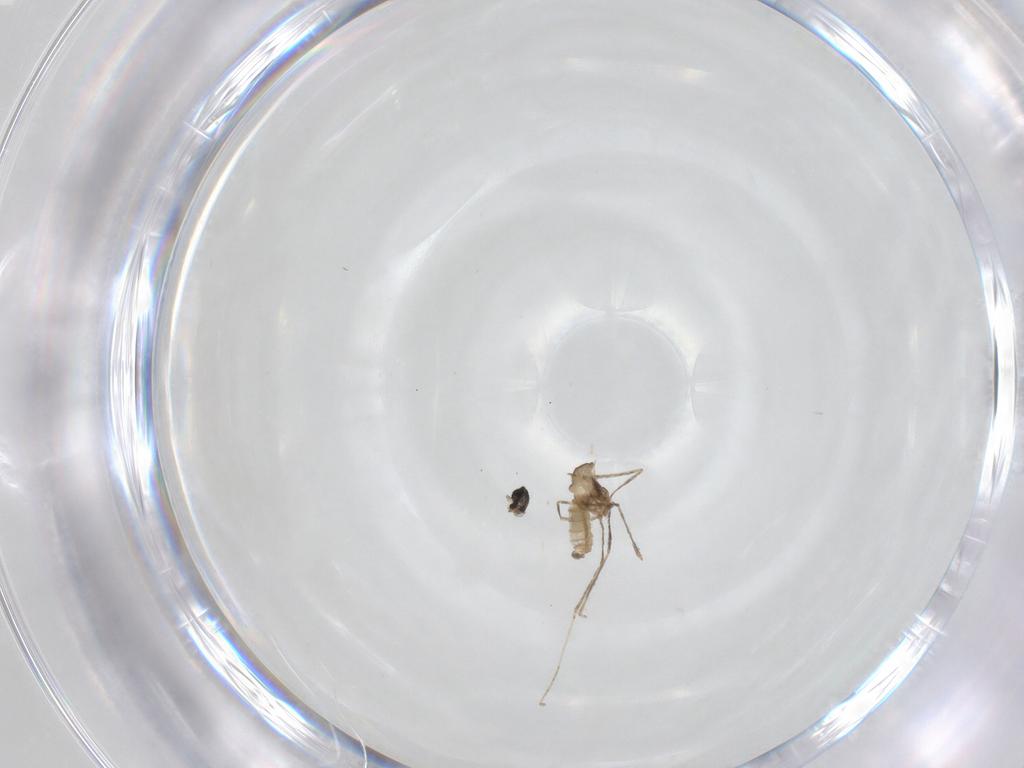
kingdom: Animalia
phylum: Arthropoda
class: Insecta
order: Diptera
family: Cecidomyiidae
